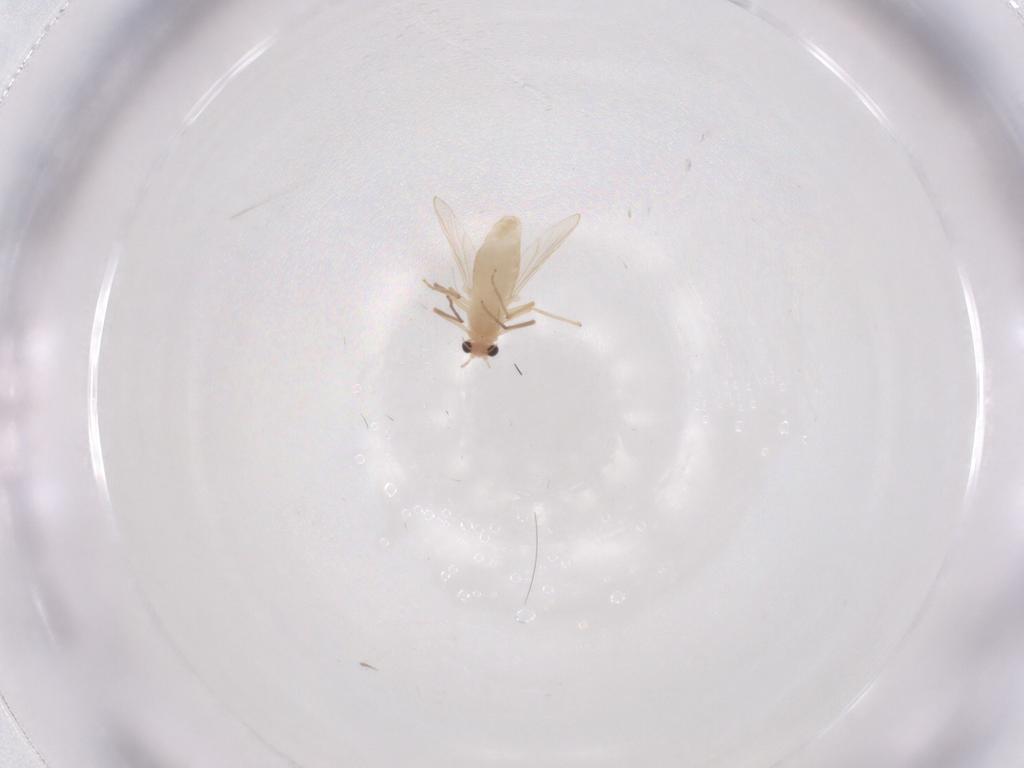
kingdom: Animalia
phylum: Arthropoda
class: Insecta
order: Diptera
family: Chironomidae
